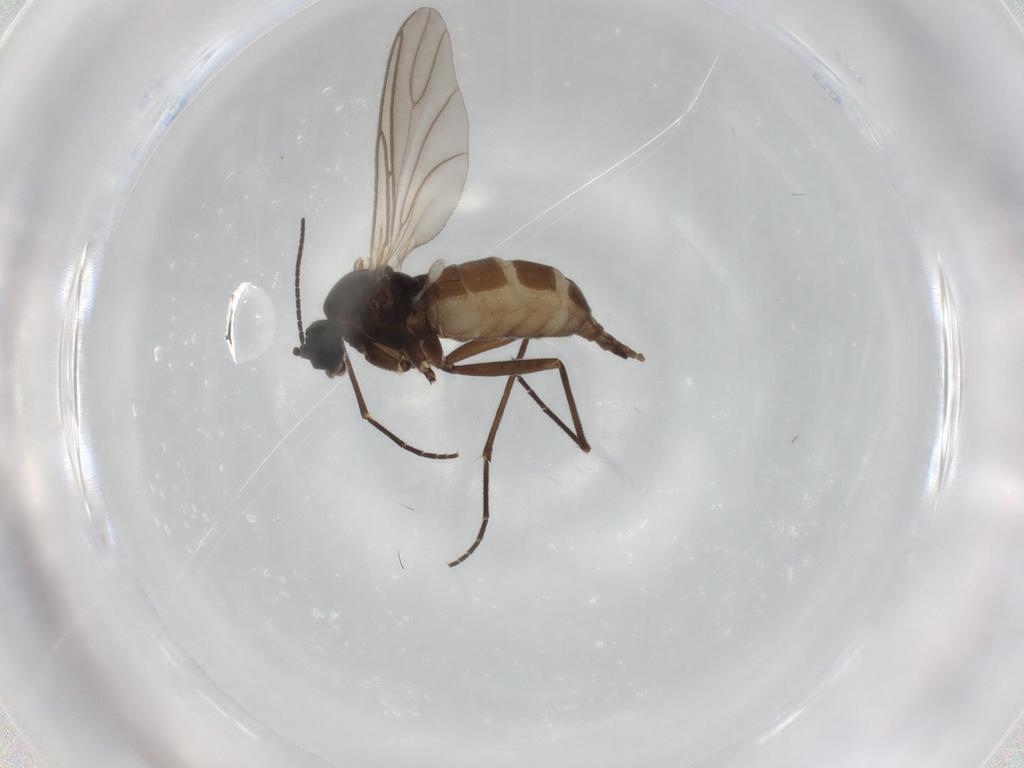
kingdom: Animalia
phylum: Arthropoda
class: Insecta
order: Diptera
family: Sciaridae
